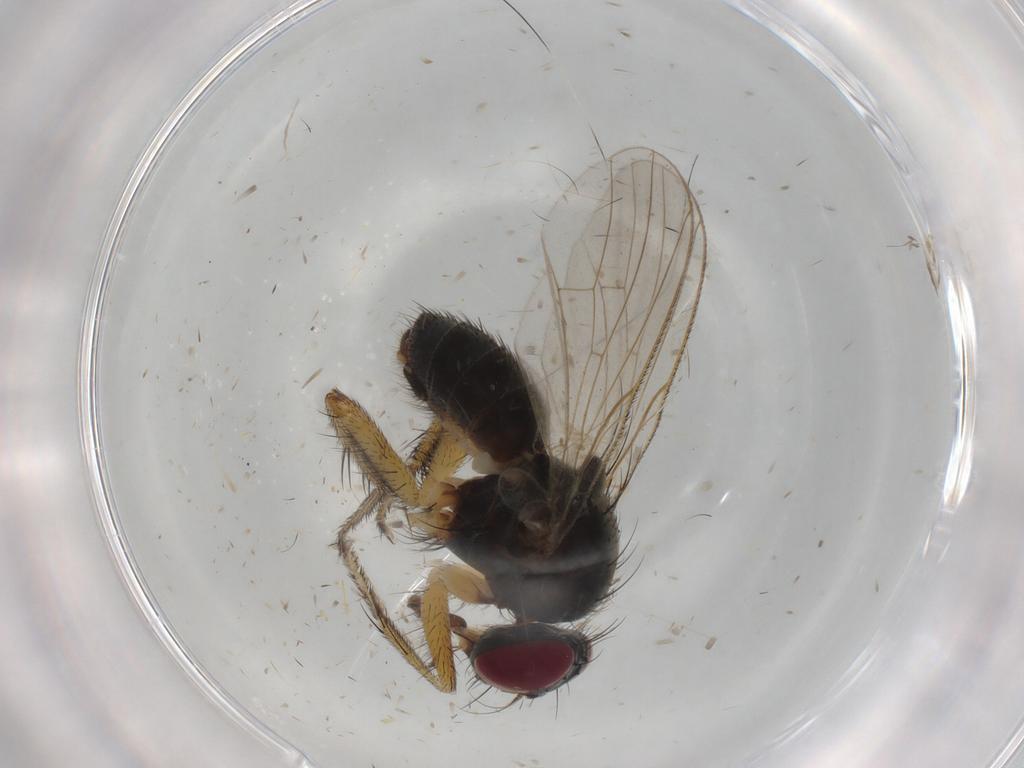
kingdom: Animalia
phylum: Arthropoda
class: Insecta
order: Diptera
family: Muscidae
